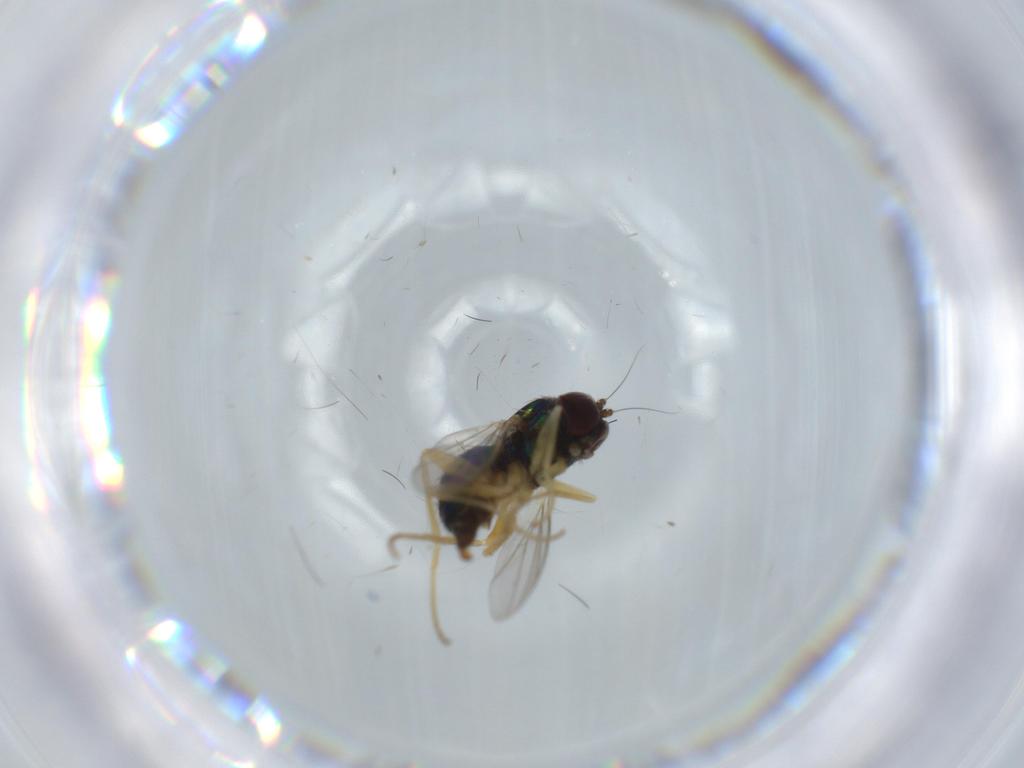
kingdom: Animalia
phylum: Arthropoda
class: Insecta
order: Diptera
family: Dolichopodidae
